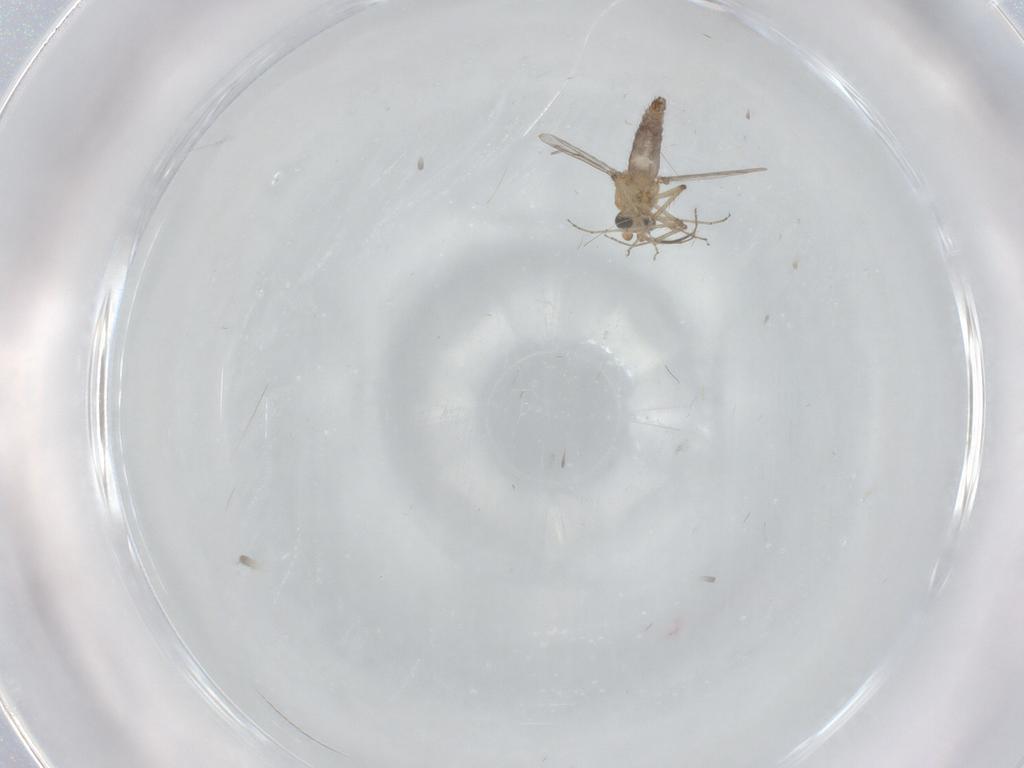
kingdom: Animalia
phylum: Arthropoda
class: Insecta
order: Diptera
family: Ceratopogonidae
